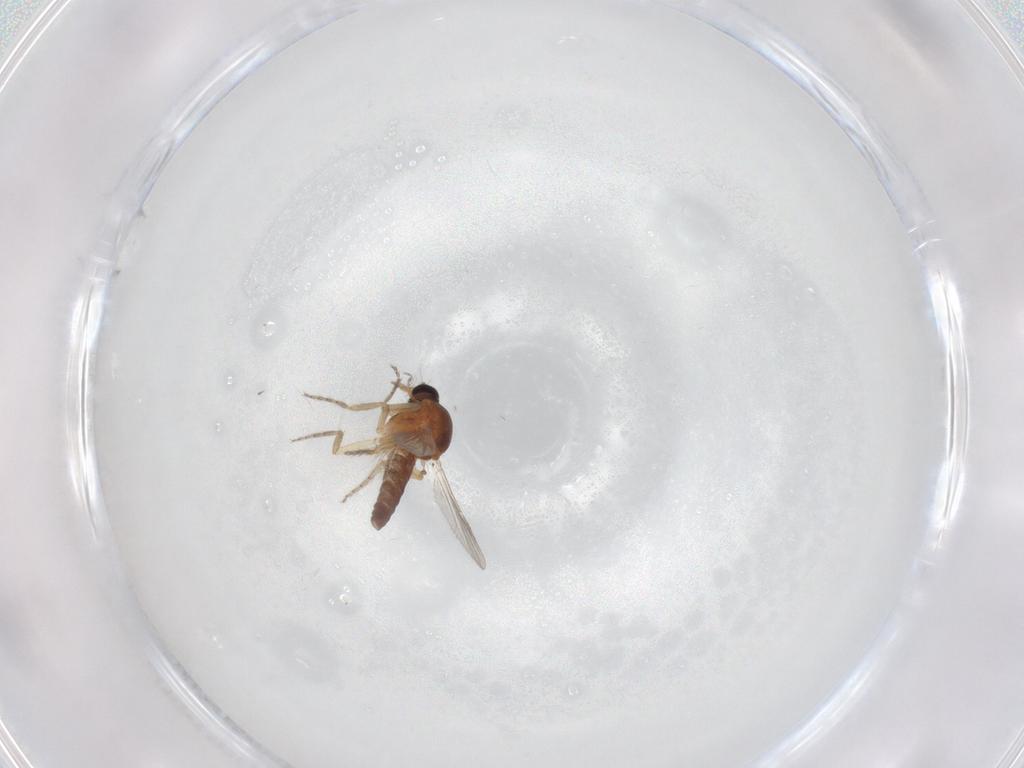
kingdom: Animalia
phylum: Arthropoda
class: Insecta
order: Diptera
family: Ceratopogonidae
